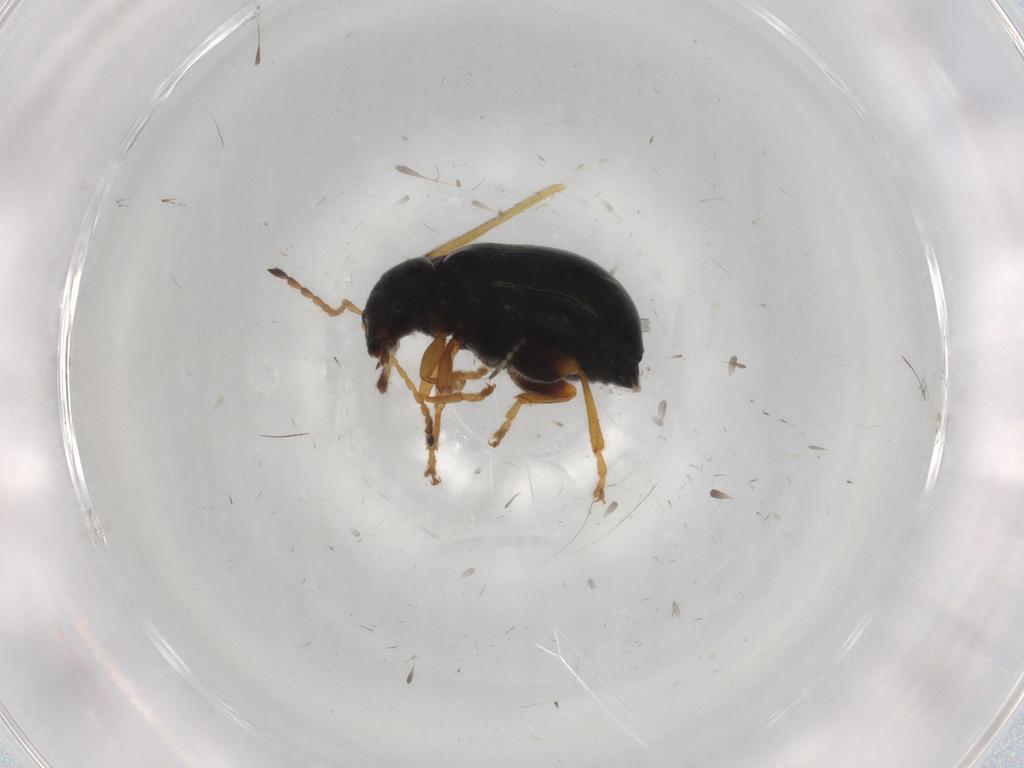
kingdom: Animalia
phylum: Arthropoda
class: Insecta
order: Coleoptera
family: Chrysomelidae
